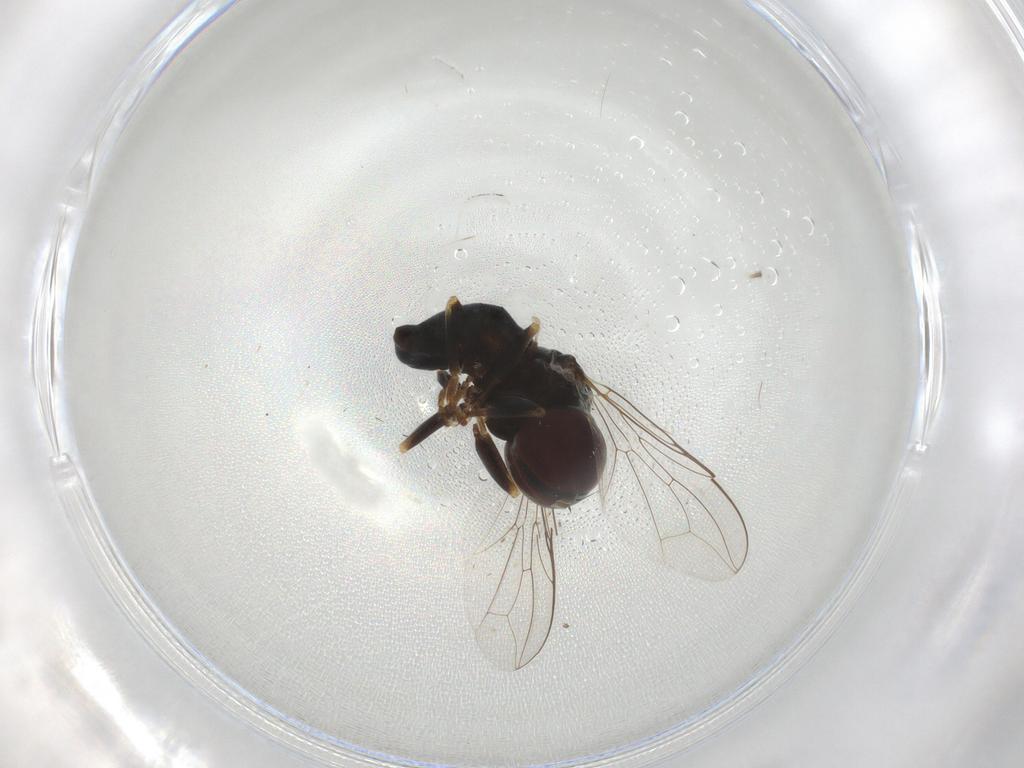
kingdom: Animalia
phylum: Arthropoda
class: Insecta
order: Diptera
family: Pipunculidae
